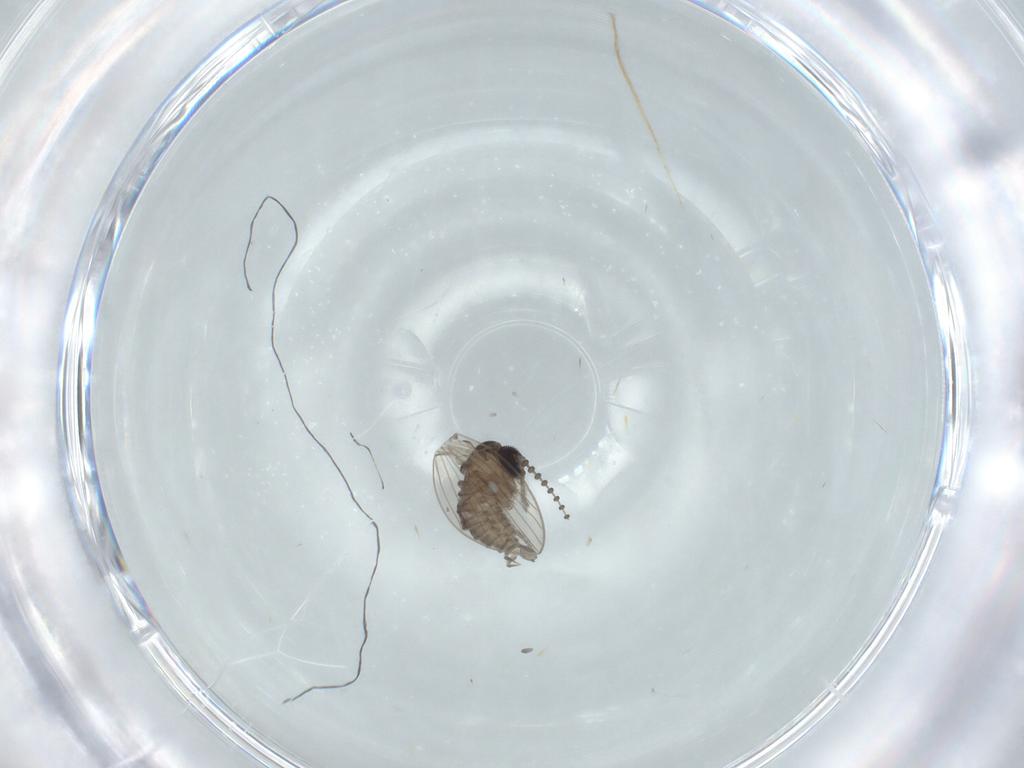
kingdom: Animalia
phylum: Arthropoda
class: Insecta
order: Diptera
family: Psychodidae
